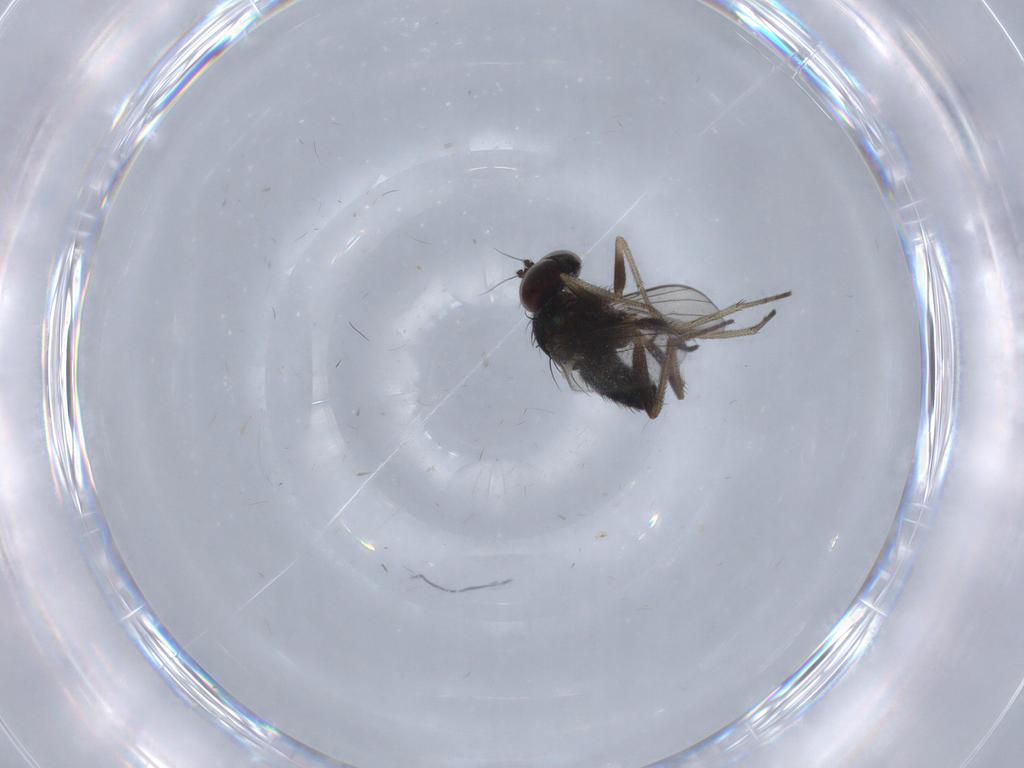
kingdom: Animalia
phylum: Arthropoda
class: Insecta
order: Diptera
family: Dolichopodidae
